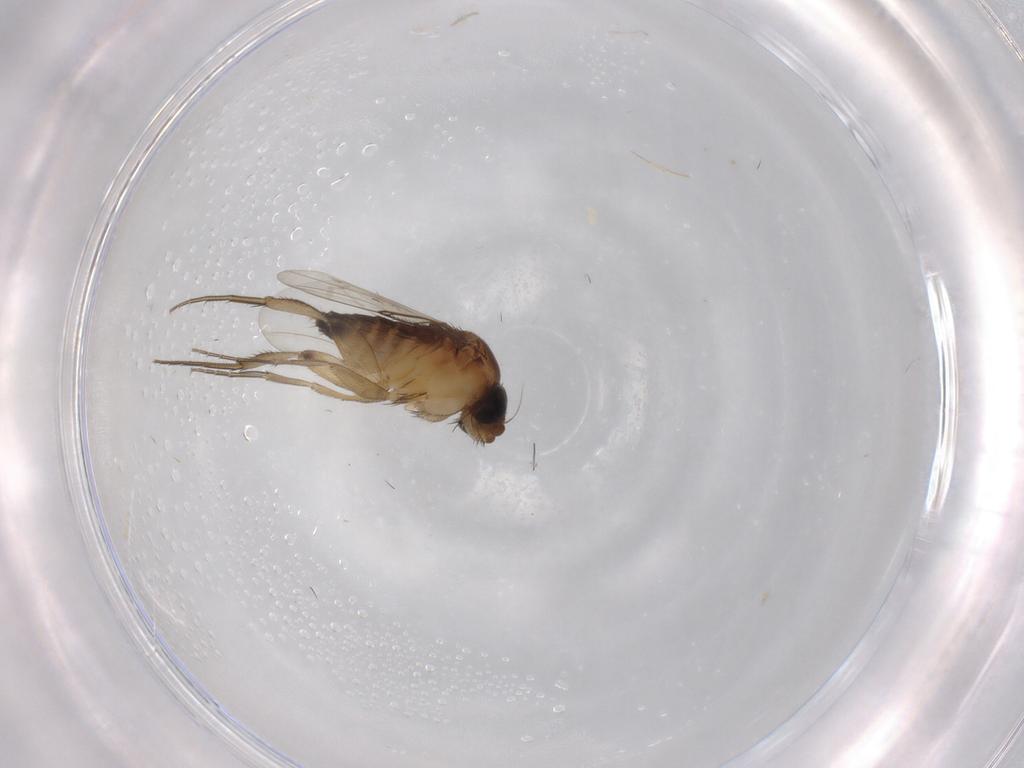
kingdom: Animalia
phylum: Arthropoda
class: Insecta
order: Diptera
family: Phoridae
